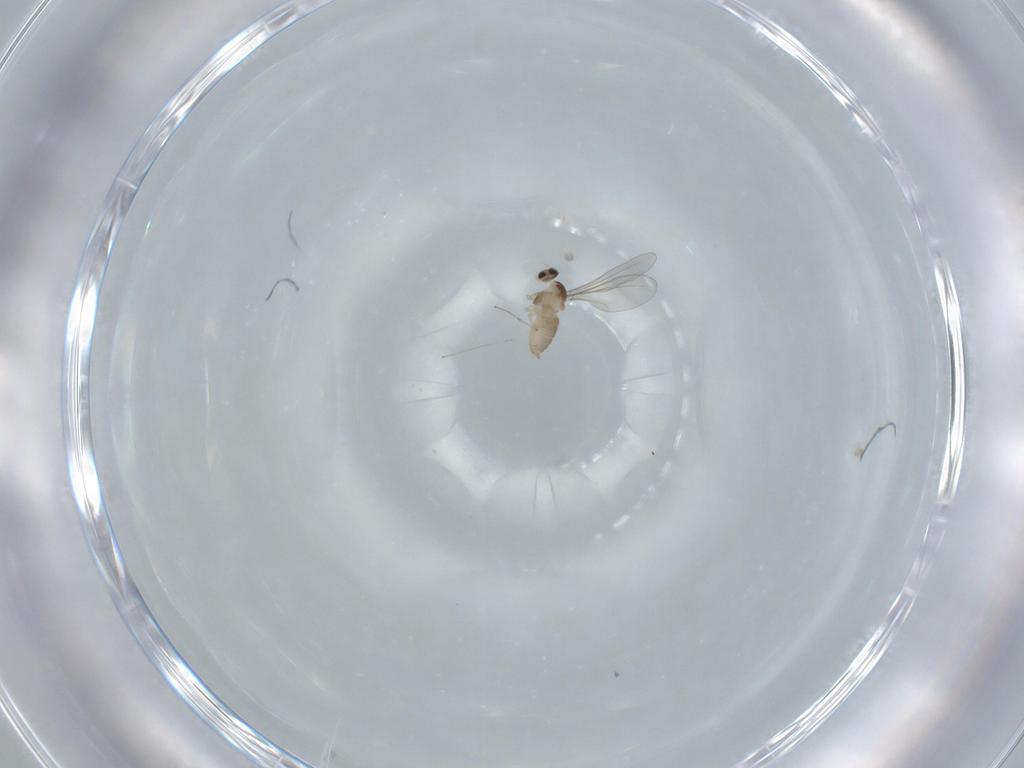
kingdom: Animalia
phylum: Arthropoda
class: Insecta
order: Diptera
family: Cecidomyiidae
